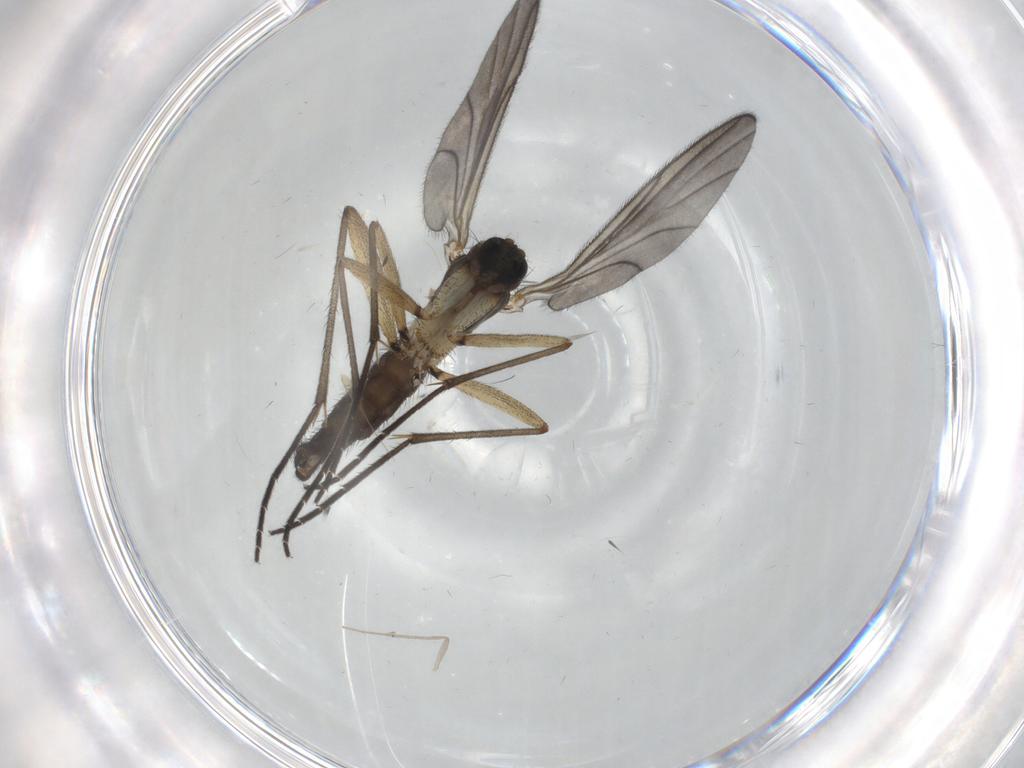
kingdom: Animalia
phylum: Arthropoda
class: Insecta
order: Diptera
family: Sciaridae
